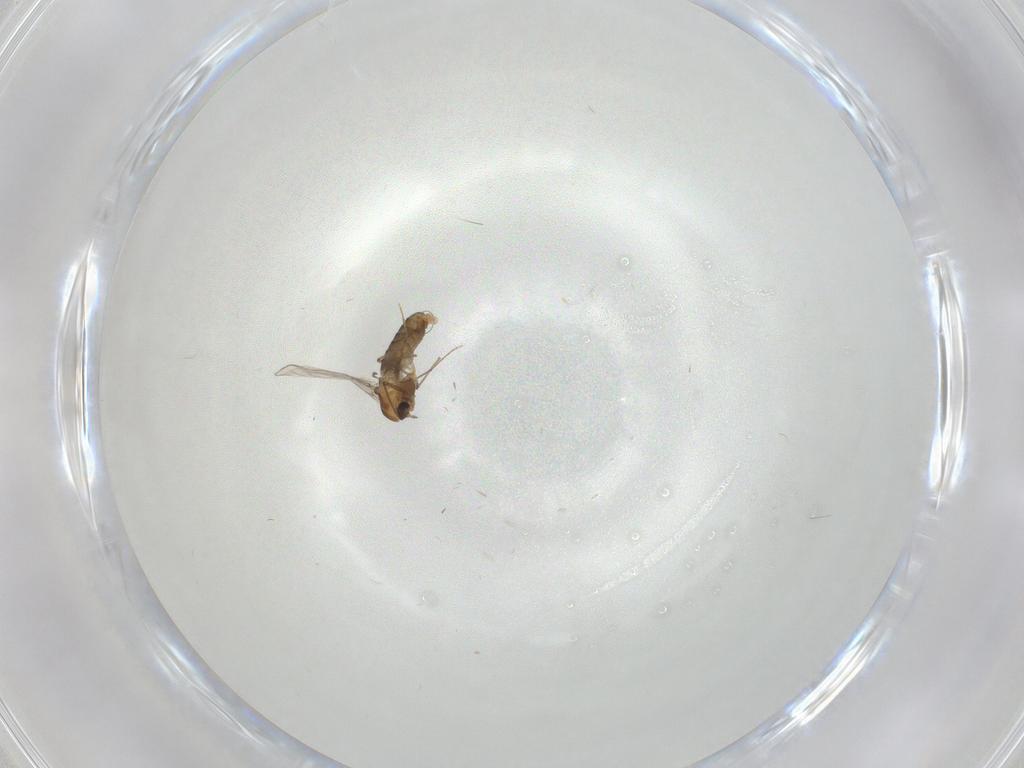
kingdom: Animalia
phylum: Arthropoda
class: Insecta
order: Diptera
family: Chironomidae
